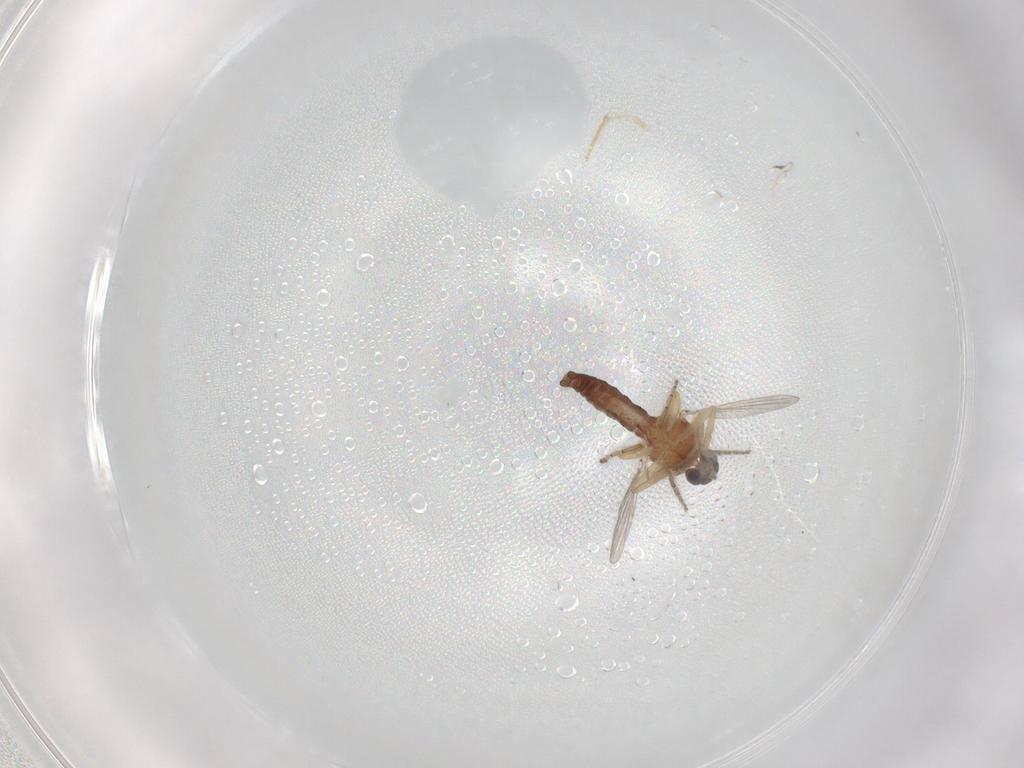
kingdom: Animalia
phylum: Arthropoda
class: Insecta
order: Diptera
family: Ceratopogonidae
